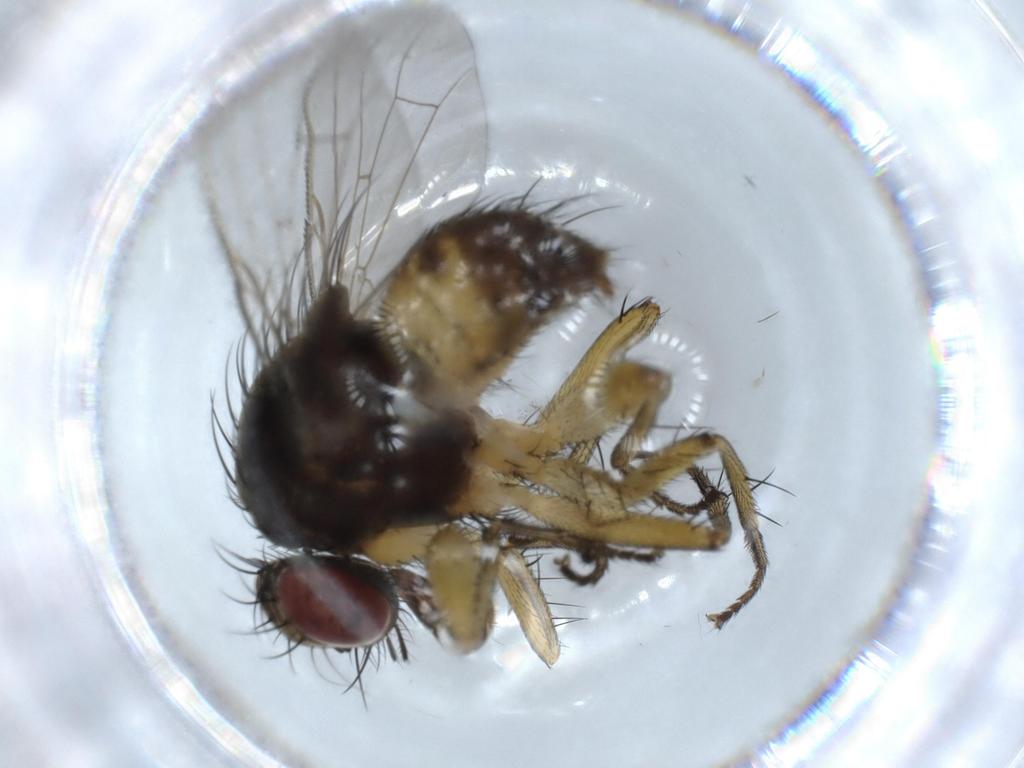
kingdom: Animalia
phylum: Arthropoda
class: Insecta
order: Diptera
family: Muscidae
